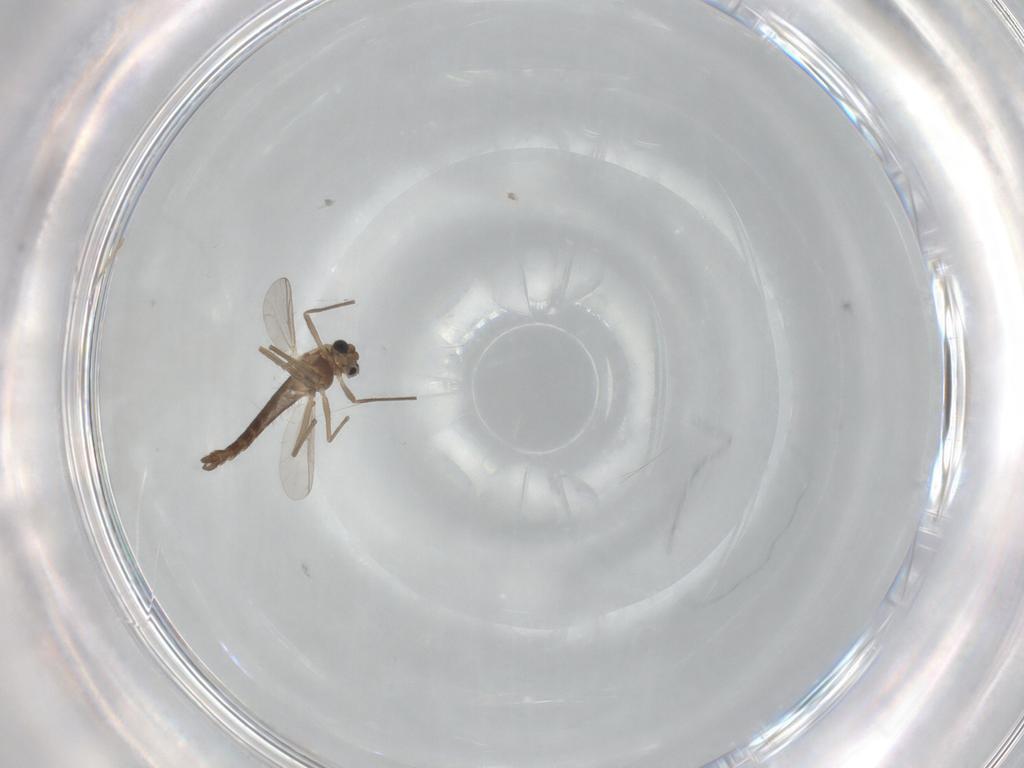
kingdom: Animalia
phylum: Arthropoda
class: Insecta
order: Diptera
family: Chironomidae
